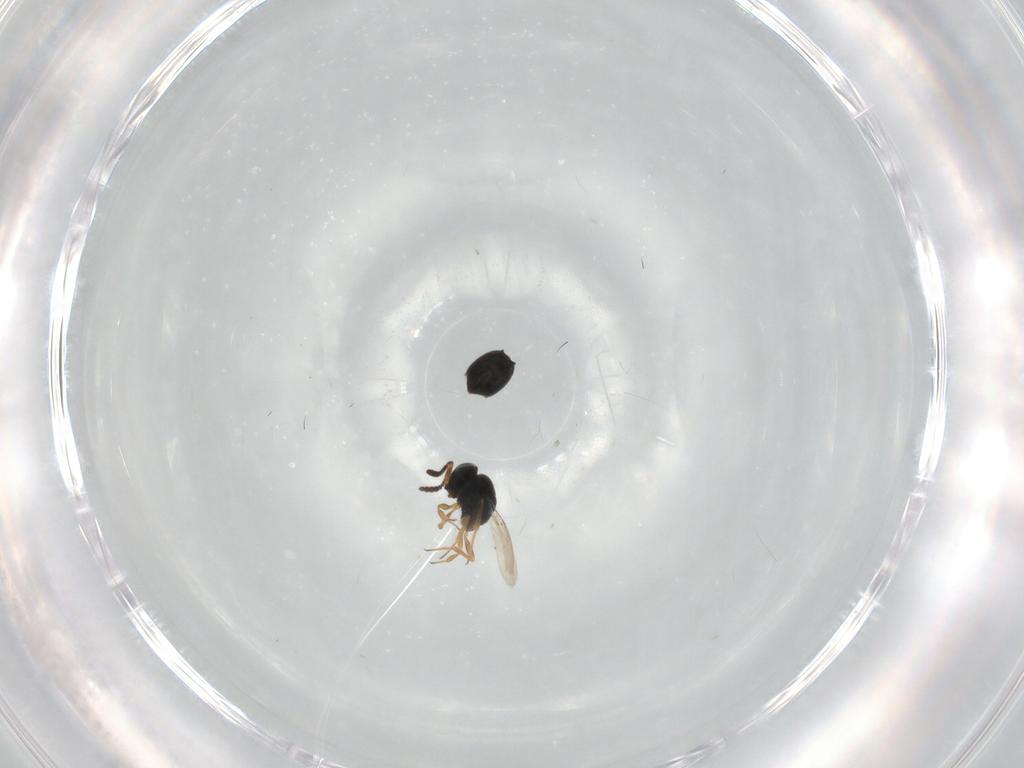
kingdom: Animalia
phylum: Arthropoda
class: Insecta
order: Hymenoptera
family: Scelionidae
